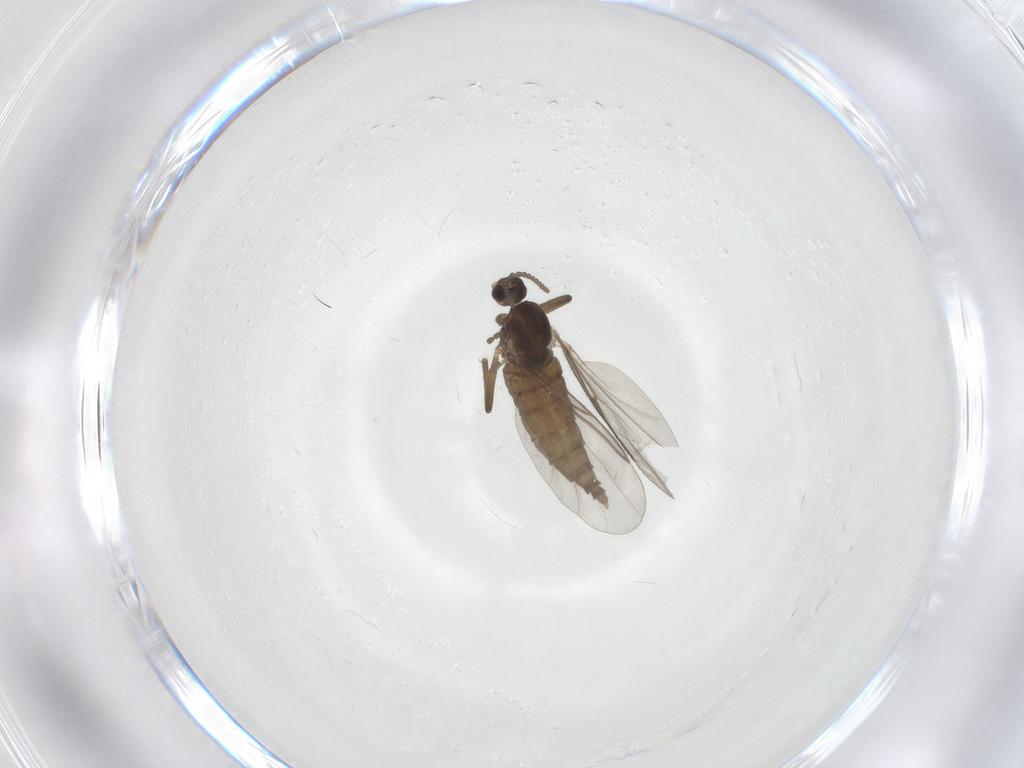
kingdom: Animalia
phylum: Arthropoda
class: Insecta
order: Diptera
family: Cecidomyiidae
